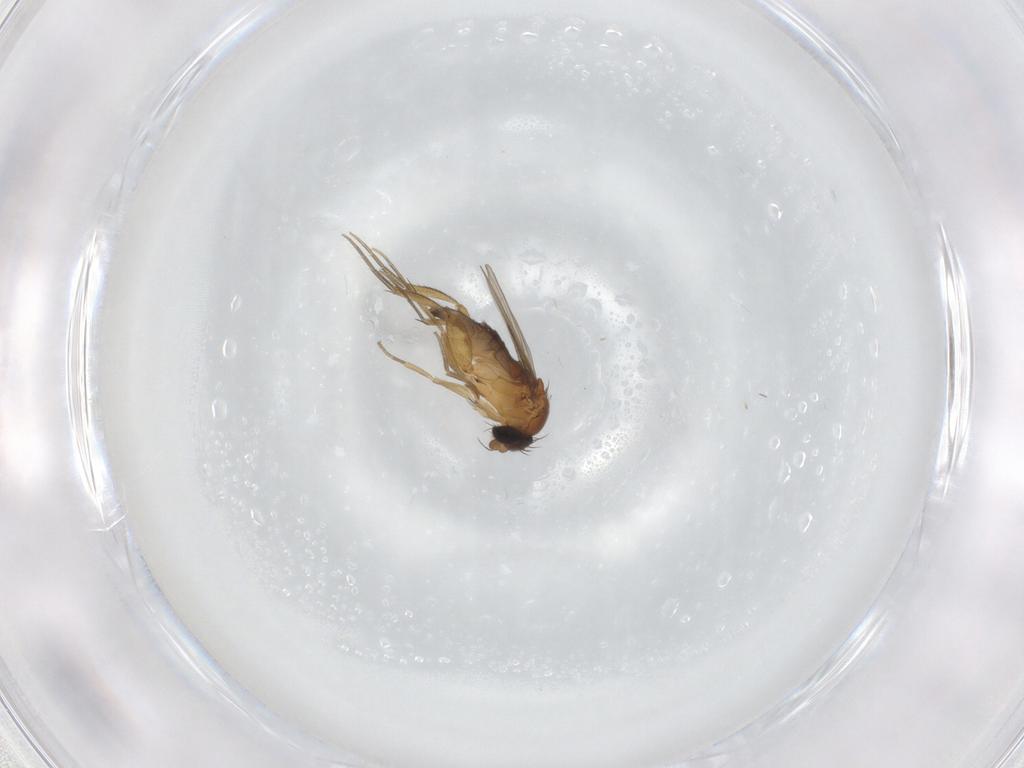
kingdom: Animalia
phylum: Arthropoda
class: Insecta
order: Diptera
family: Phoridae
